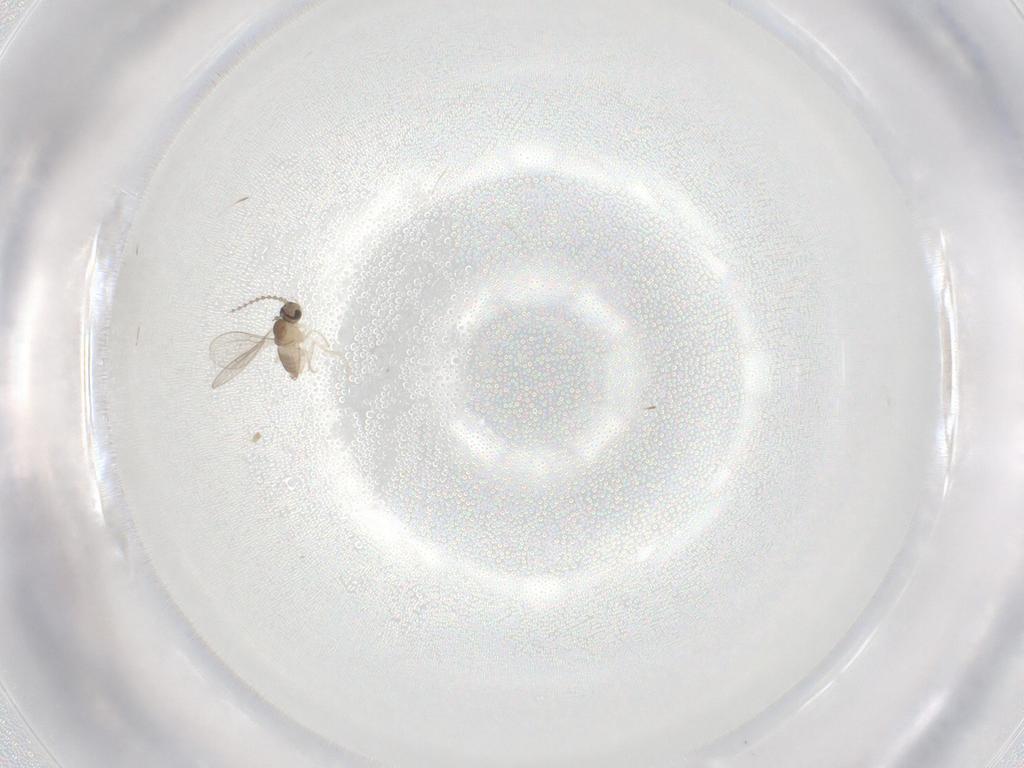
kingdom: Animalia
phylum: Arthropoda
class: Insecta
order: Diptera
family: Cecidomyiidae
